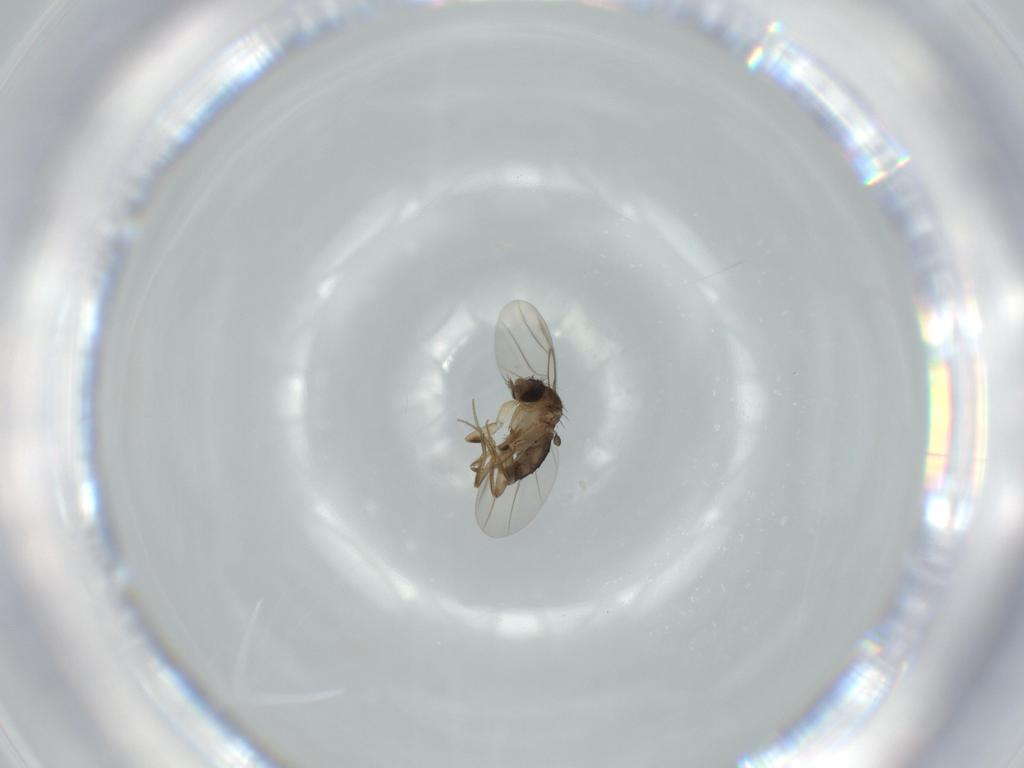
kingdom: Animalia
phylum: Arthropoda
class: Insecta
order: Diptera
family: Phoridae
